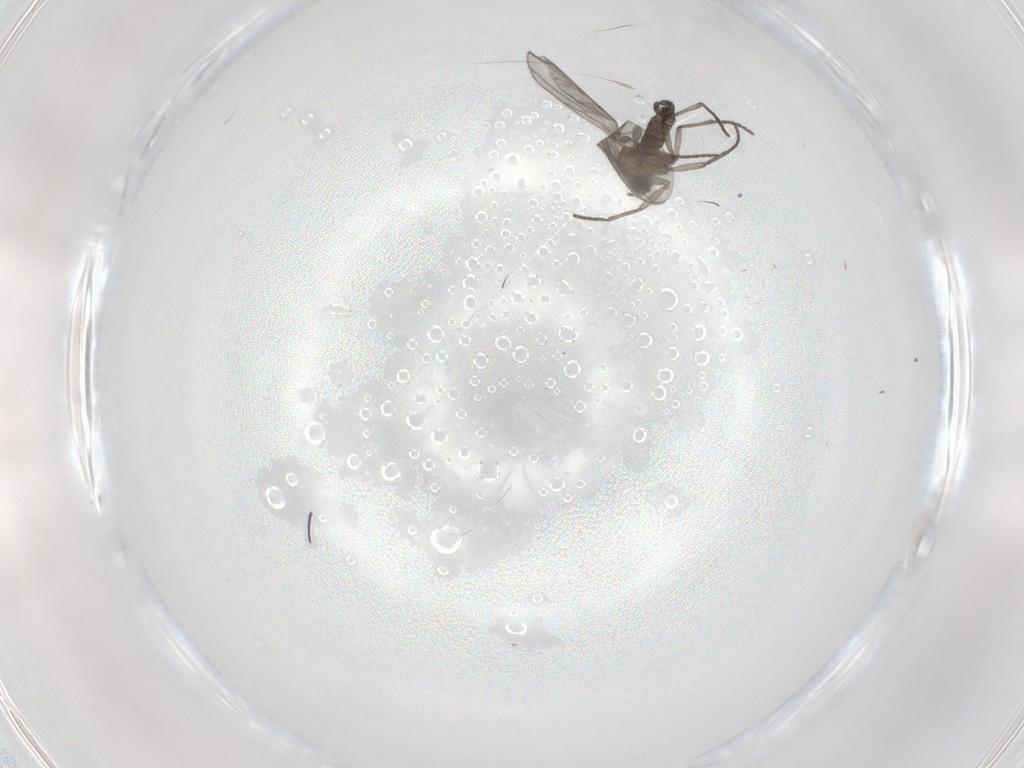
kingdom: Animalia
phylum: Arthropoda
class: Insecta
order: Diptera
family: Sciaridae
